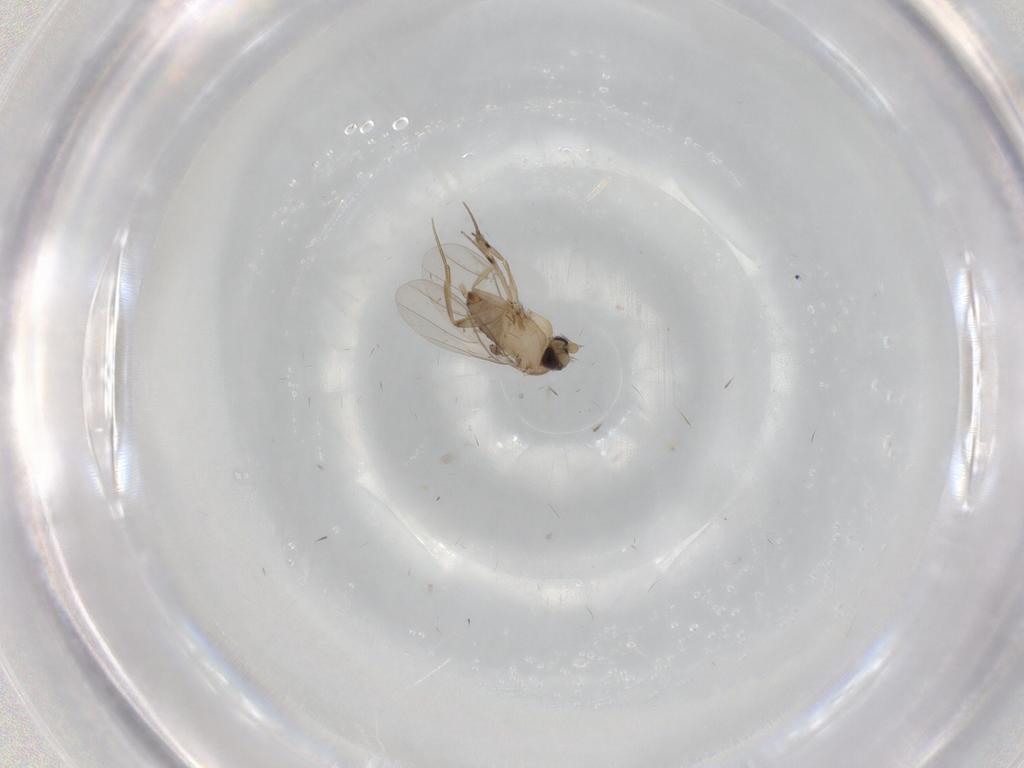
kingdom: Animalia
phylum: Arthropoda
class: Insecta
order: Diptera
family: Phoridae
